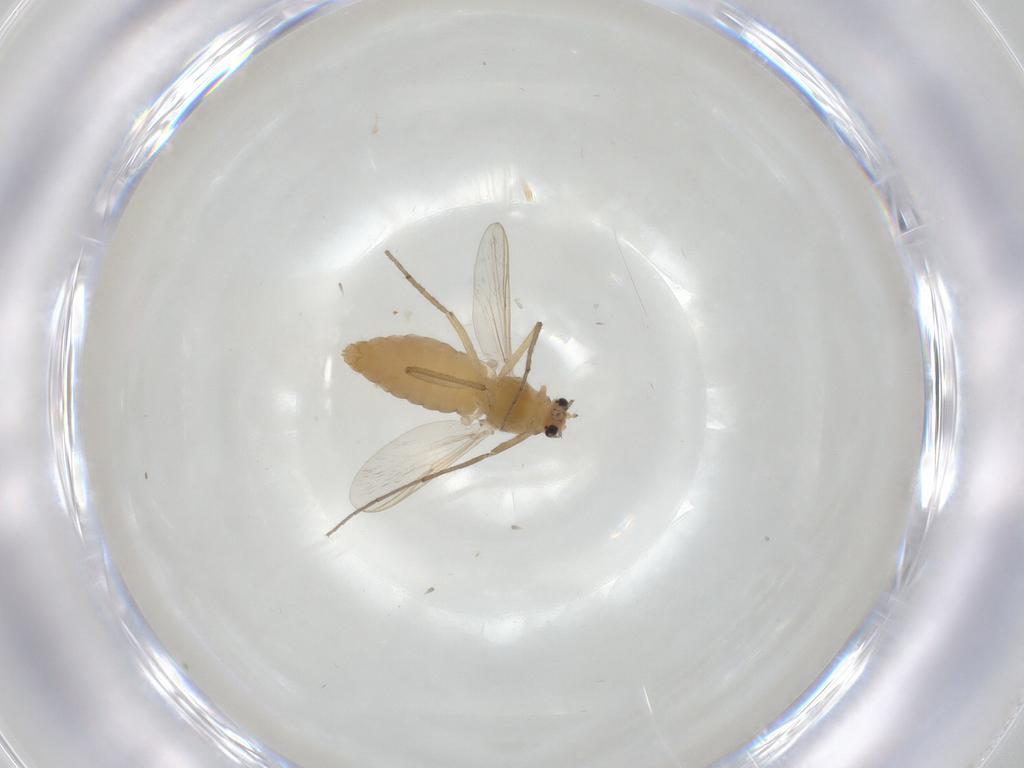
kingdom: Animalia
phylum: Arthropoda
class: Insecta
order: Diptera
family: Chironomidae
